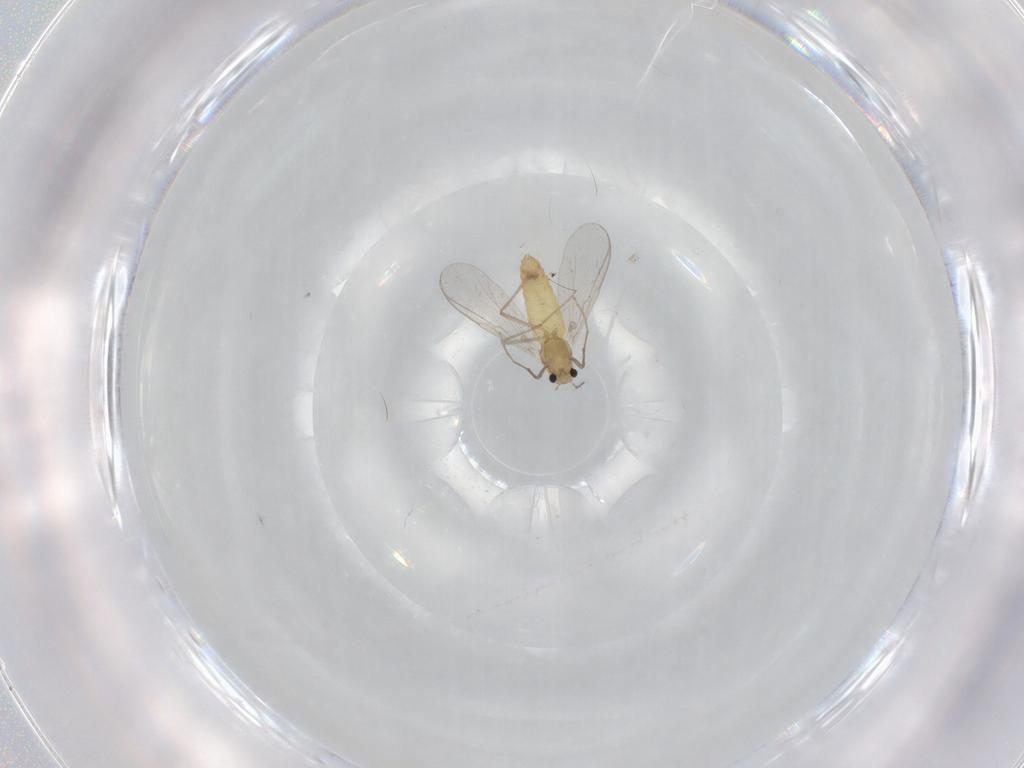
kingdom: Animalia
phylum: Arthropoda
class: Insecta
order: Diptera
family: Chironomidae
